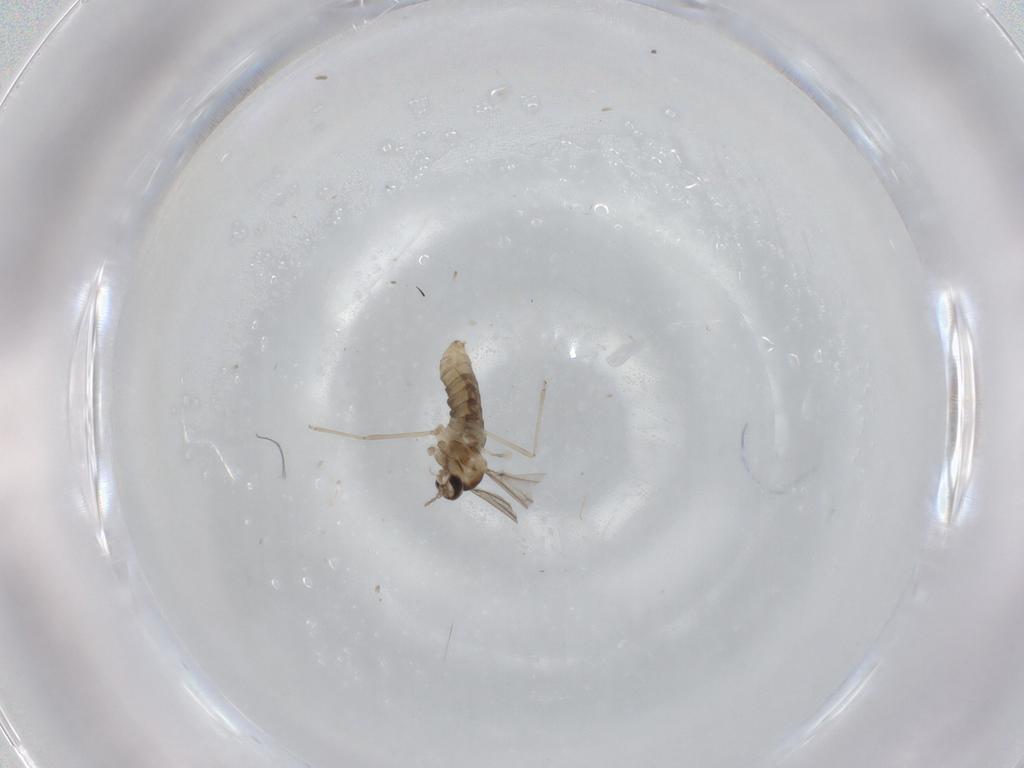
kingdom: Animalia
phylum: Arthropoda
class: Insecta
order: Diptera
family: Cecidomyiidae
